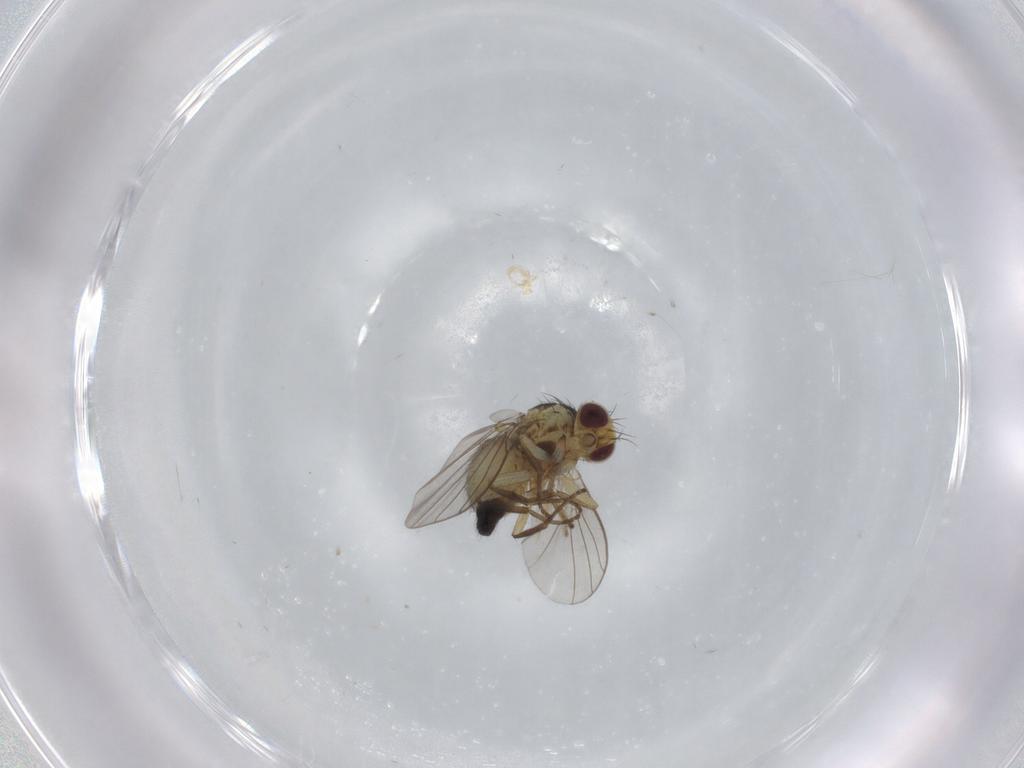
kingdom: Animalia
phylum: Arthropoda
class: Insecta
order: Diptera
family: Agromyzidae
